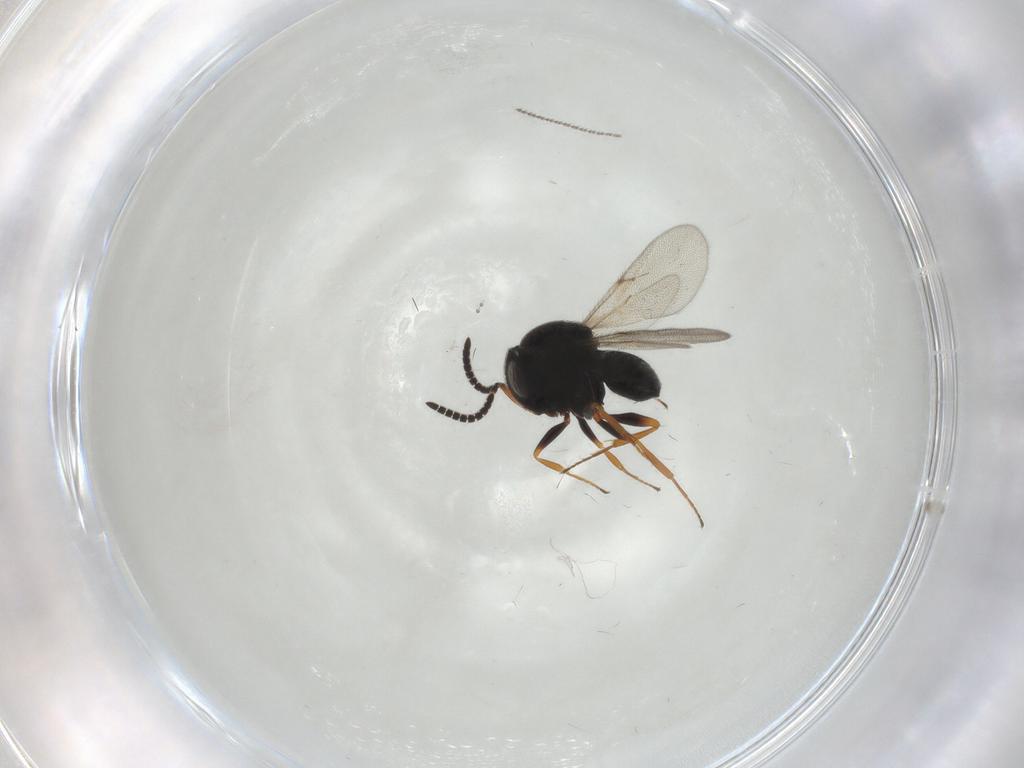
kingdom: Animalia
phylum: Arthropoda
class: Insecta
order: Hymenoptera
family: Scelionidae
